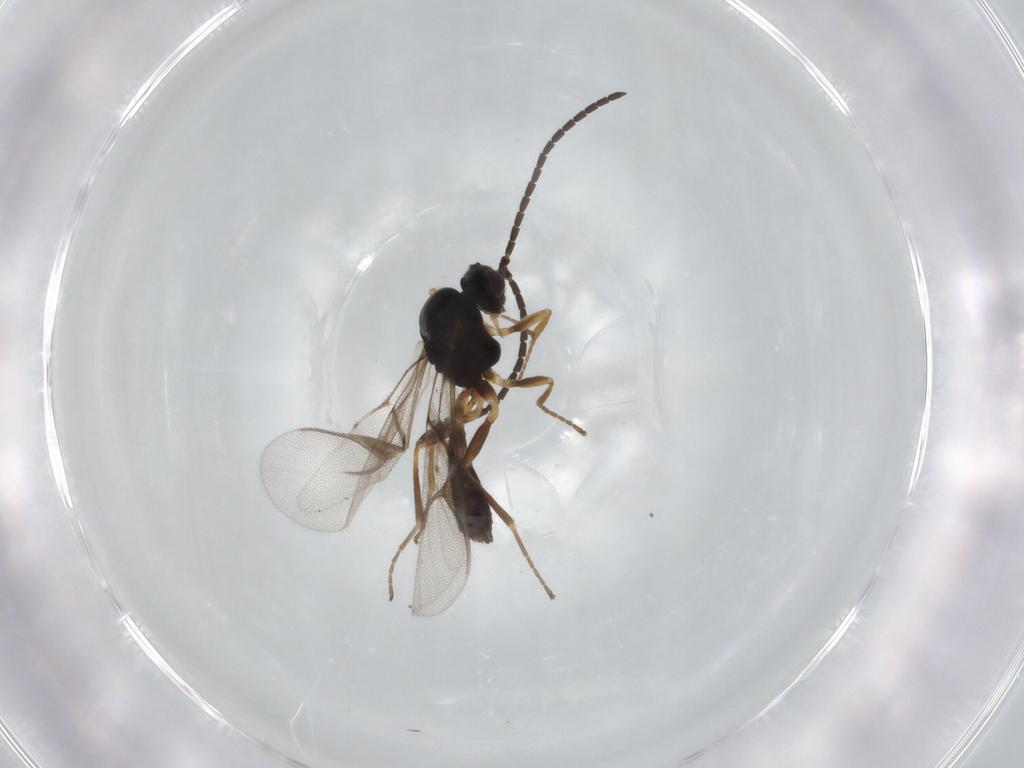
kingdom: Animalia
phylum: Arthropoda
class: Insecta
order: Hymenoptera
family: Braconidae
